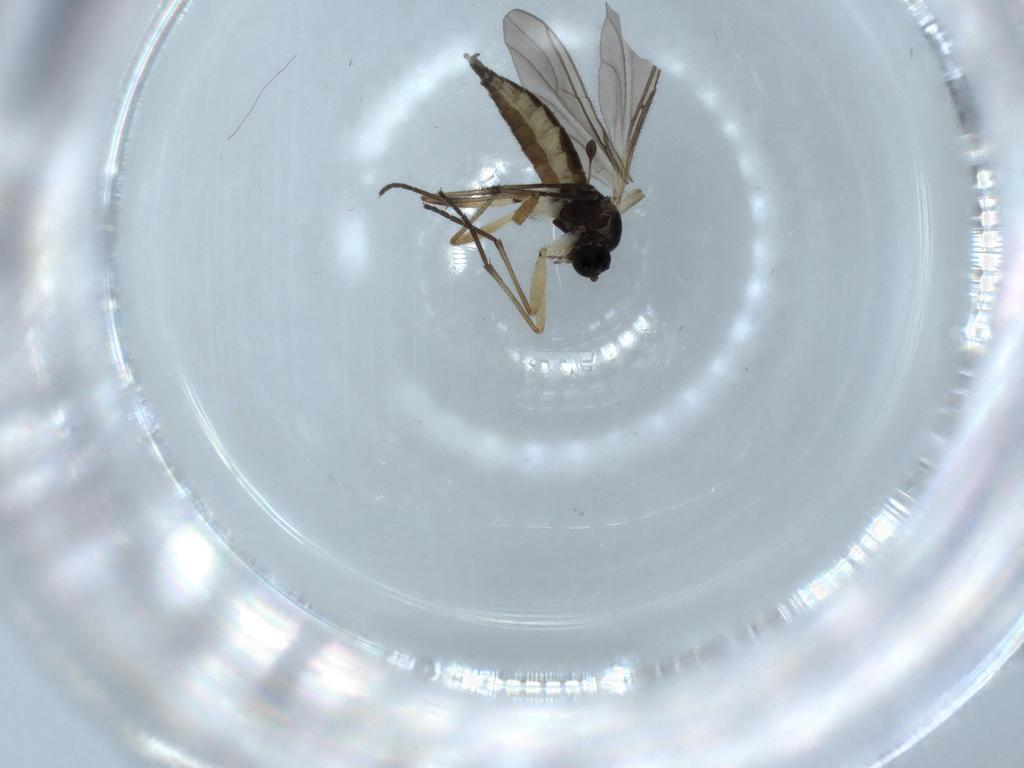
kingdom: Animalia
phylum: Arthropoda
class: Insecta
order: Diptera
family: Sciaridae
